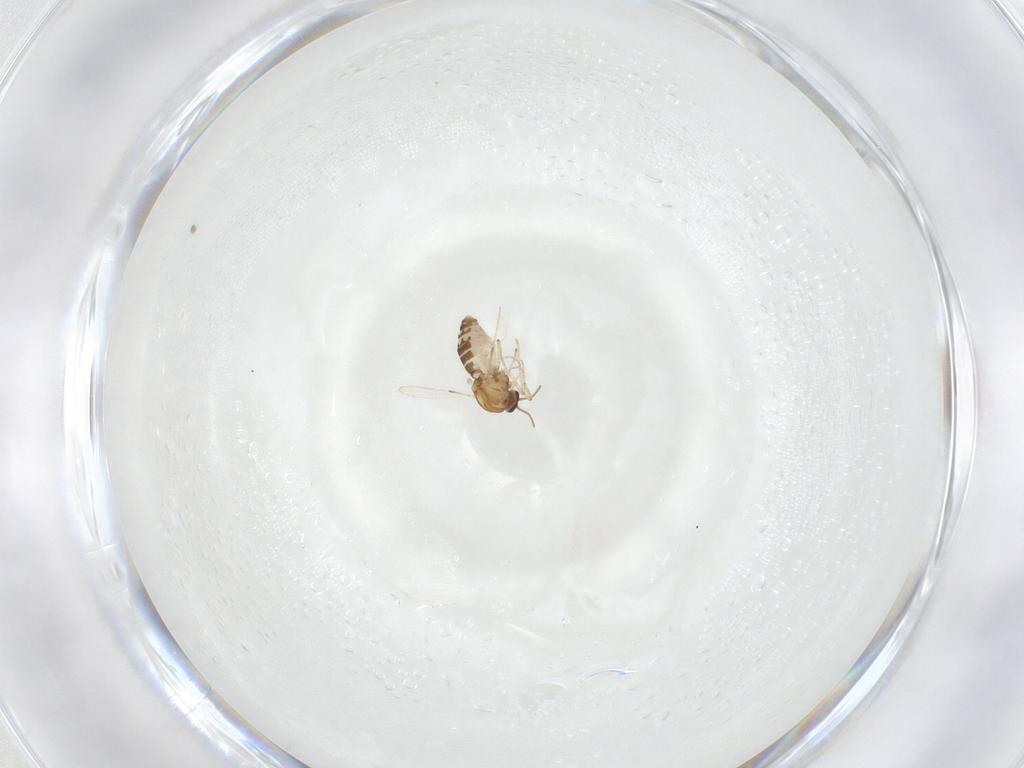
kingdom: Animalia
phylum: Arthropoda
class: Insecta
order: Diptera
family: Ceratopogonidae
